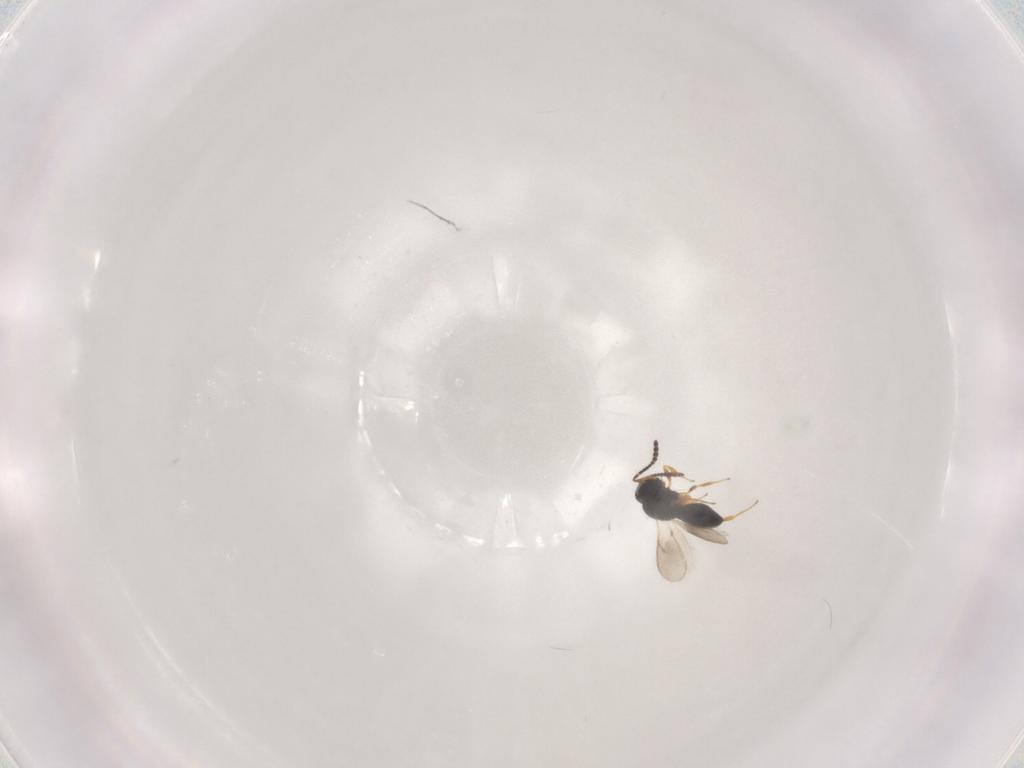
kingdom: Animalia
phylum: Arthropoda
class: Insecta
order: Hymenoptera
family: Scelionidae
